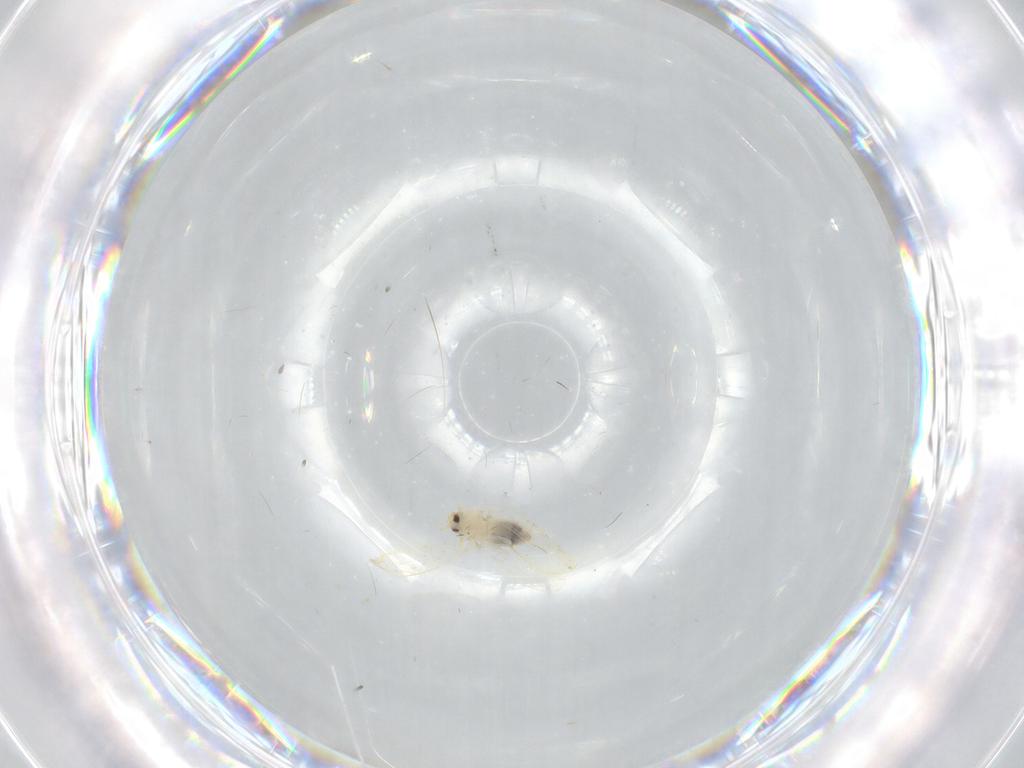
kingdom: Animalia
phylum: Arthropoda
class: Insecta
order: Hemiptera
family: Aleyrodidae
